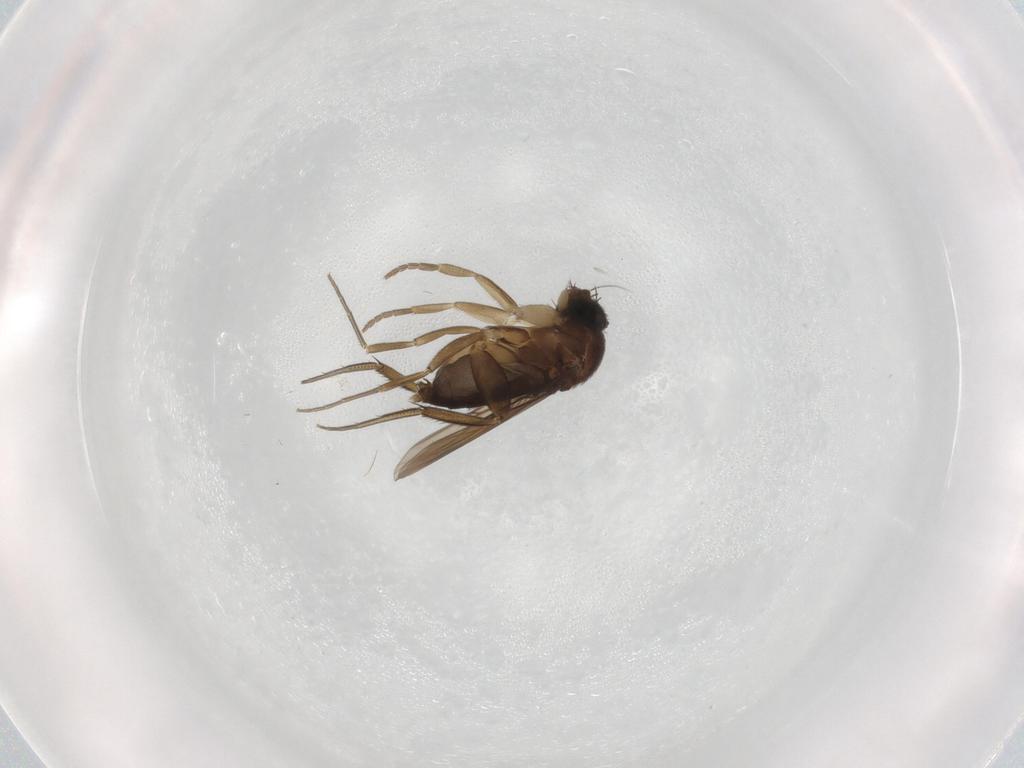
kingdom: Animalia
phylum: Arthropoda
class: Insecta
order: Diptera
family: Phoridae
